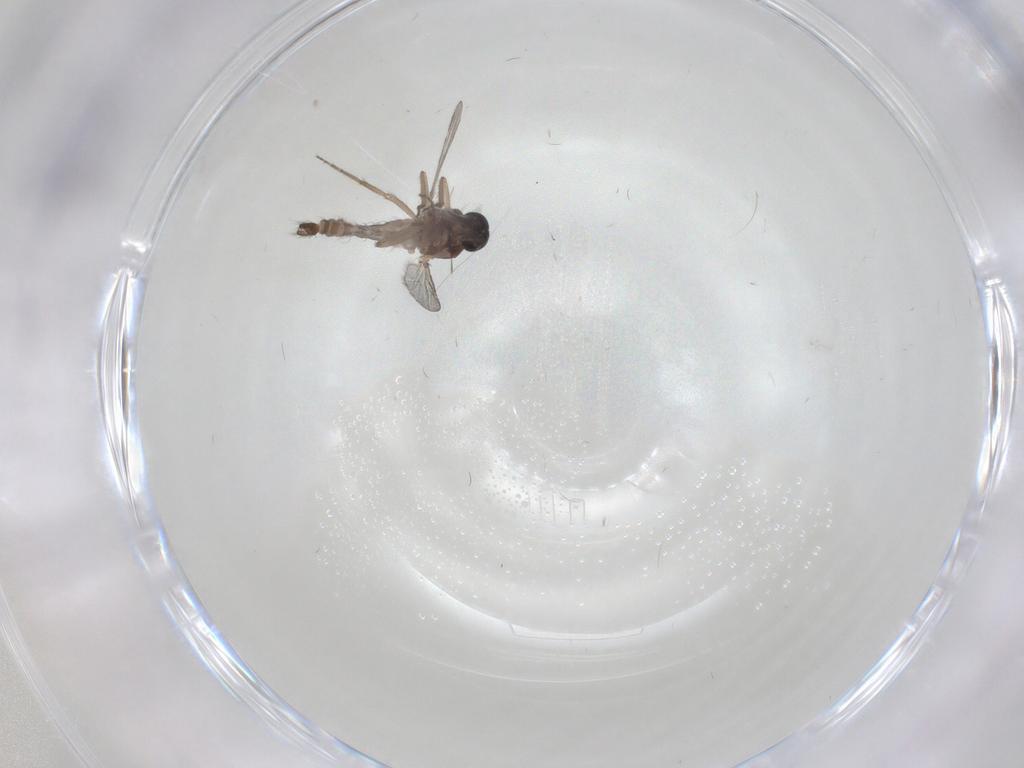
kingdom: Animalia
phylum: Arthropoda
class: Insecta
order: Diptera
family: Ceratopogonidae
